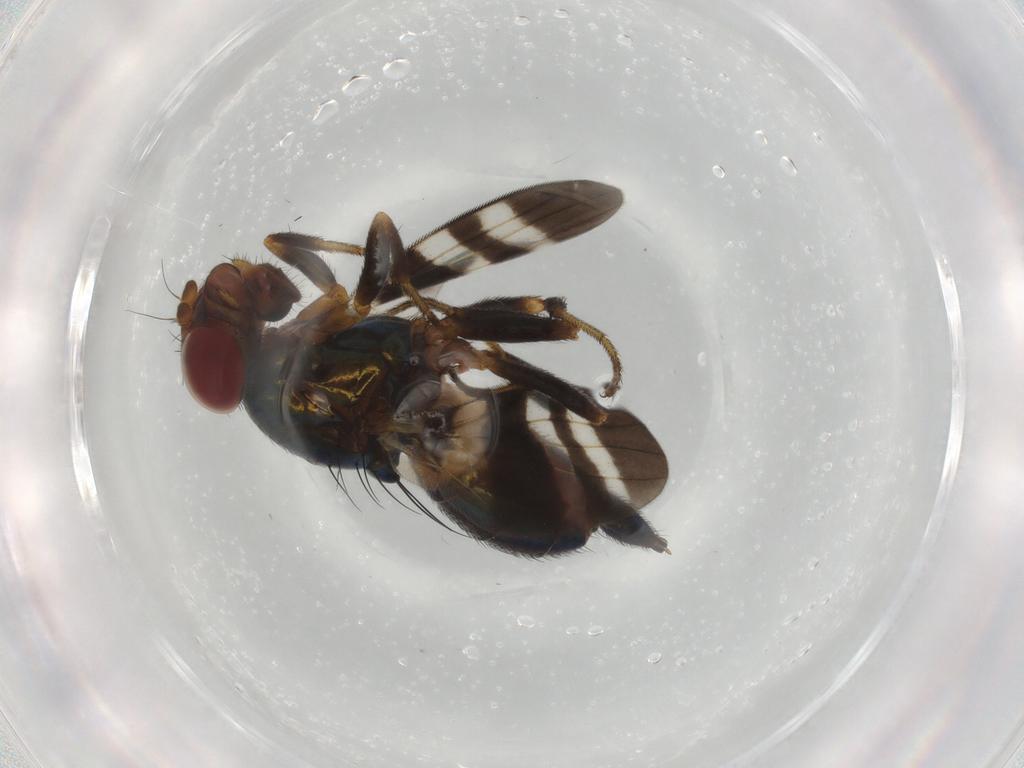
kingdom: Animalia
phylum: Arthropoda
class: Insecta
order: Diptera
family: Ulidiidae
